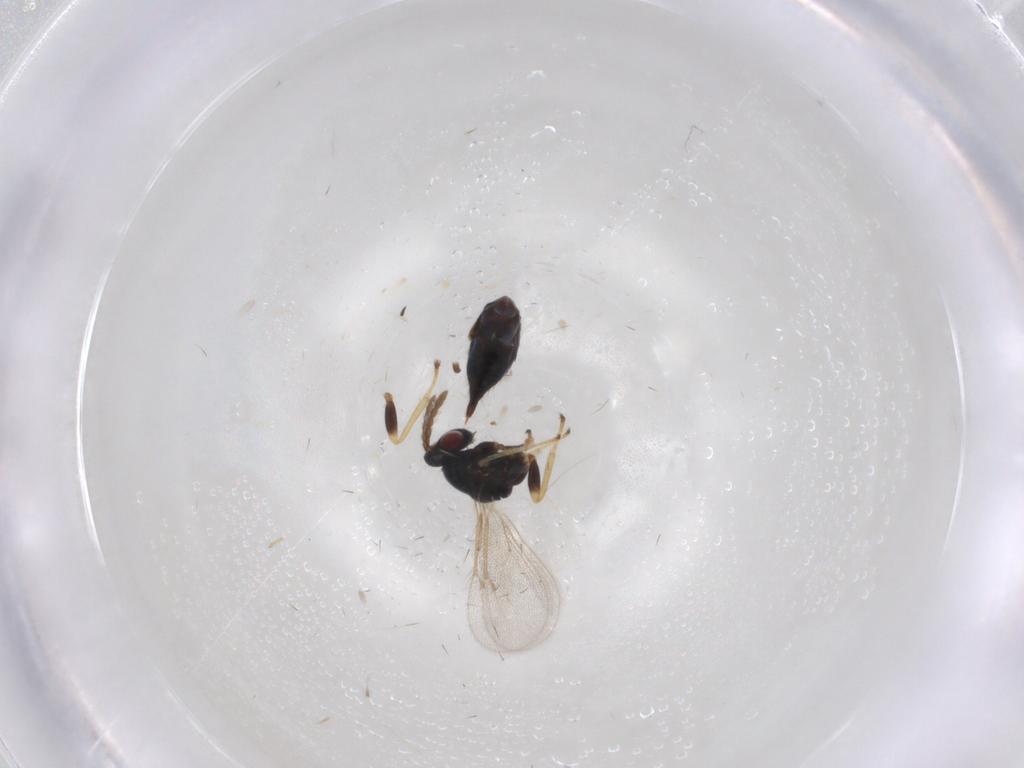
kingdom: Animalia
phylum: Arthropoda
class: Insecta
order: Hymenoptera
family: Eulophidae
